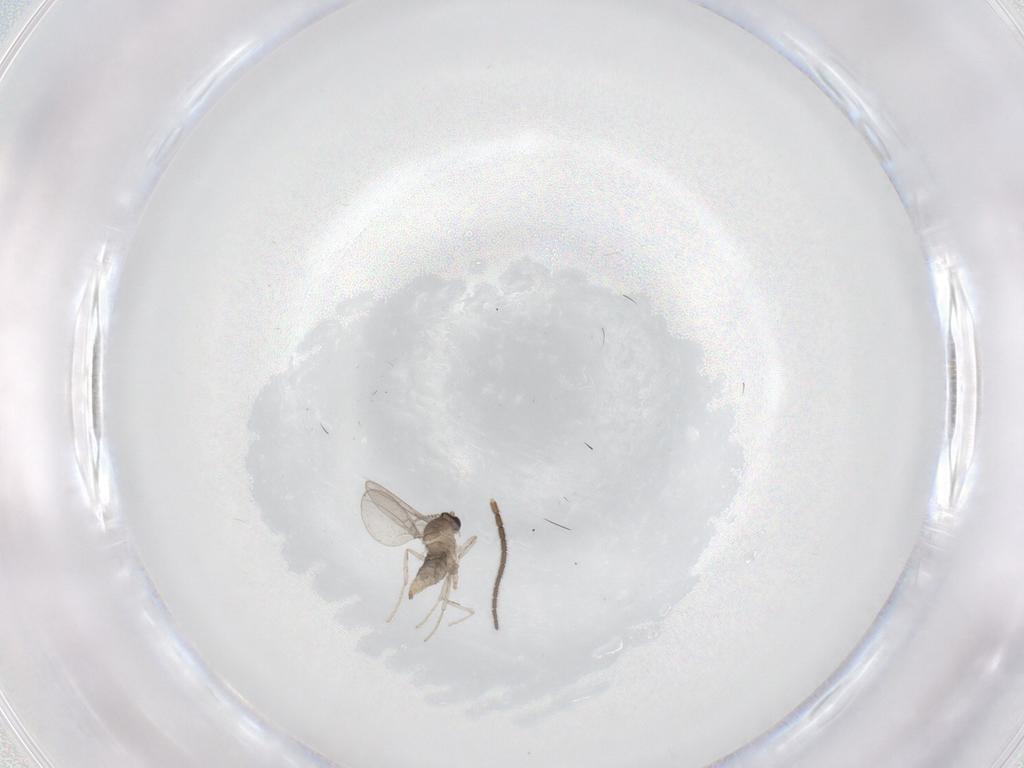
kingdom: Animalia
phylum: Arthropoda
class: Insecta
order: Diptera
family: Sciaridae
